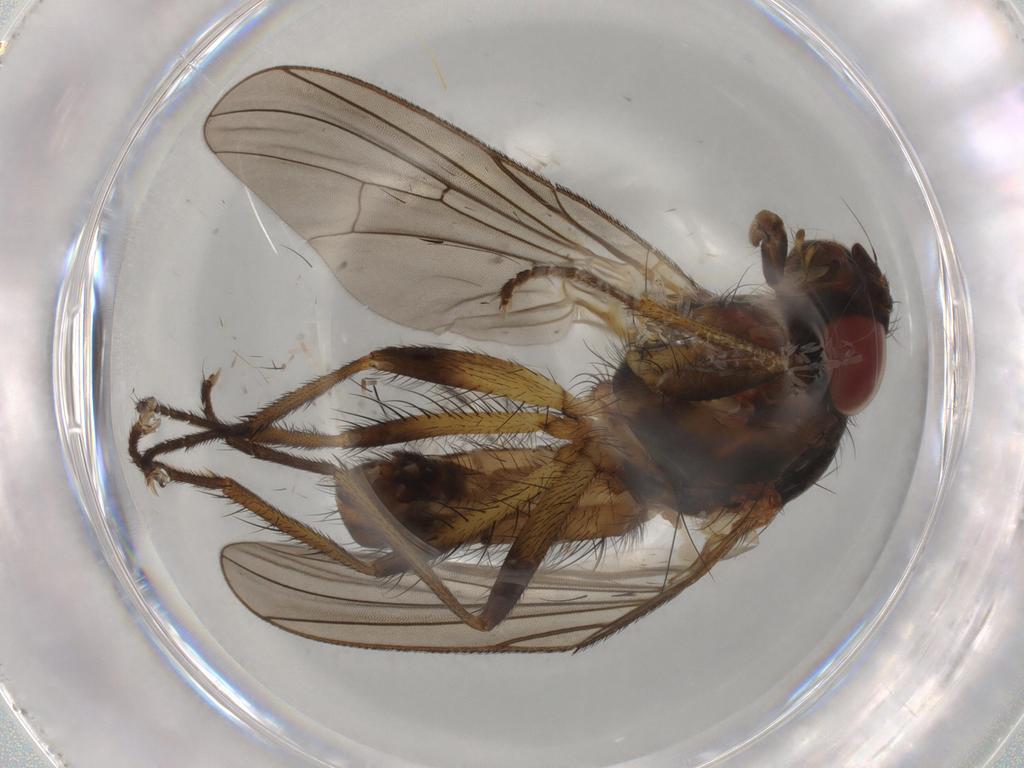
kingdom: Animalia
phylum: Arthropoda
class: Insecta
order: Diptera
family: Anthomyiidae
